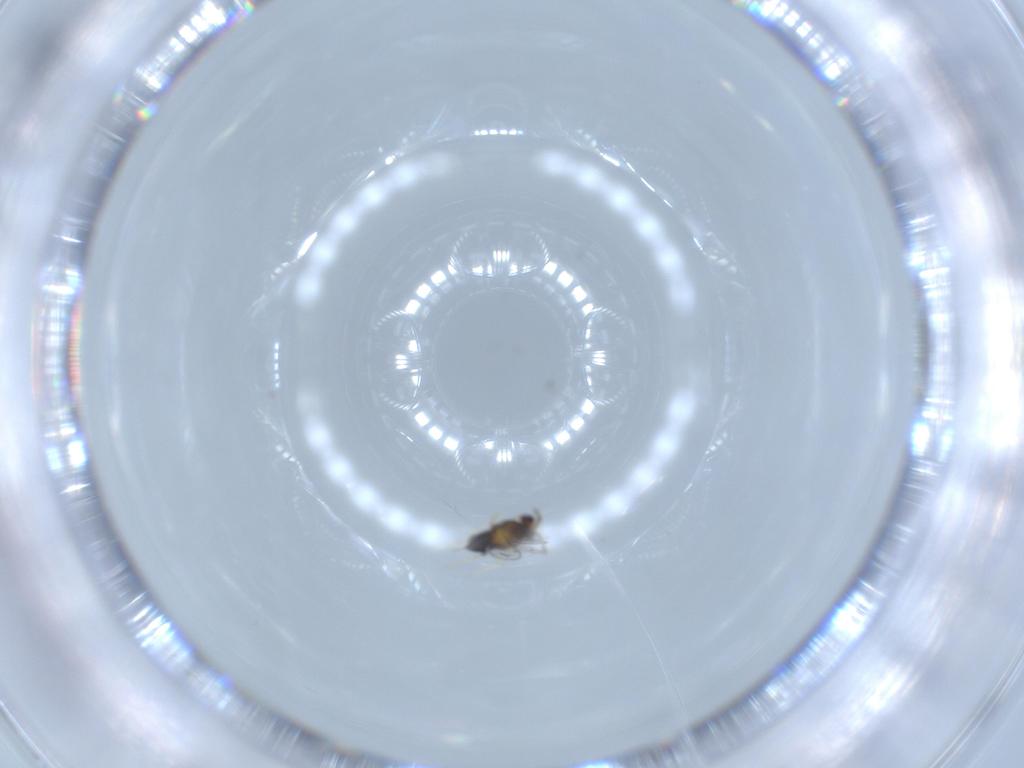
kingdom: Animalia
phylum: Arthropoda
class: Insecta
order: Hymenoptera
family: Aphelinidae
